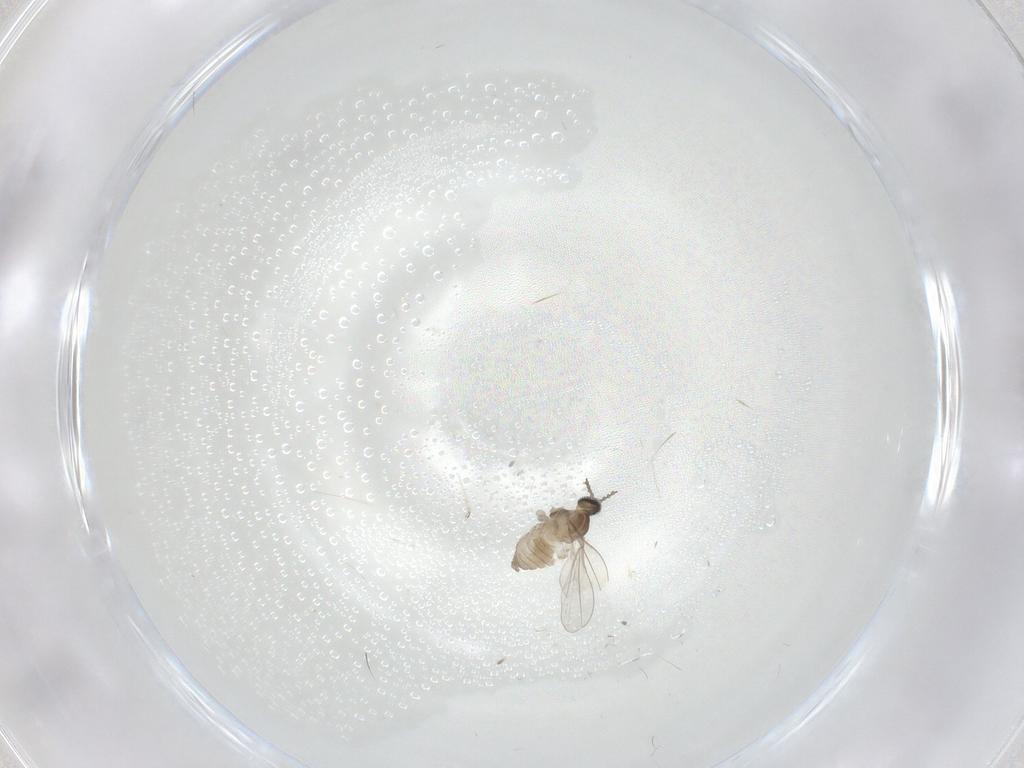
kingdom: Animalia
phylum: Arthropoda
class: Insecta
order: Diptera
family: Cecidomyiidae
